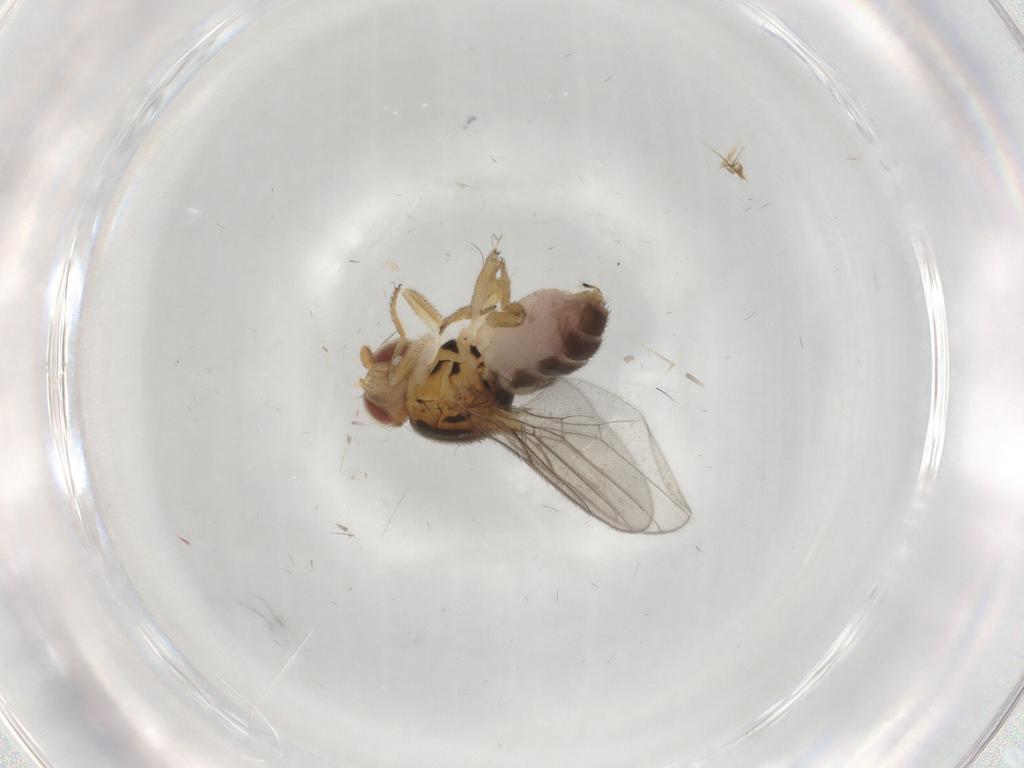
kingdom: Animalia
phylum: Arthropoda
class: Insecta
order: Diptera
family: Chloropidae
